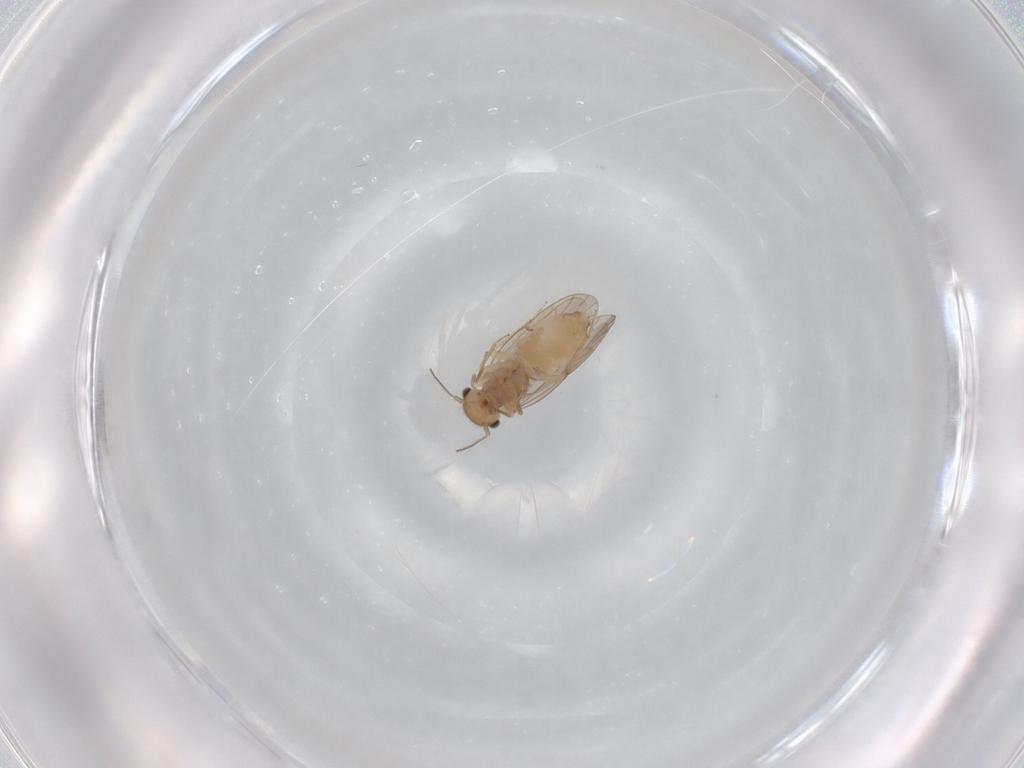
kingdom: Animalia
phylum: Arthropoda
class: Insecta
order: Psocodea
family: Ectopsocidae
